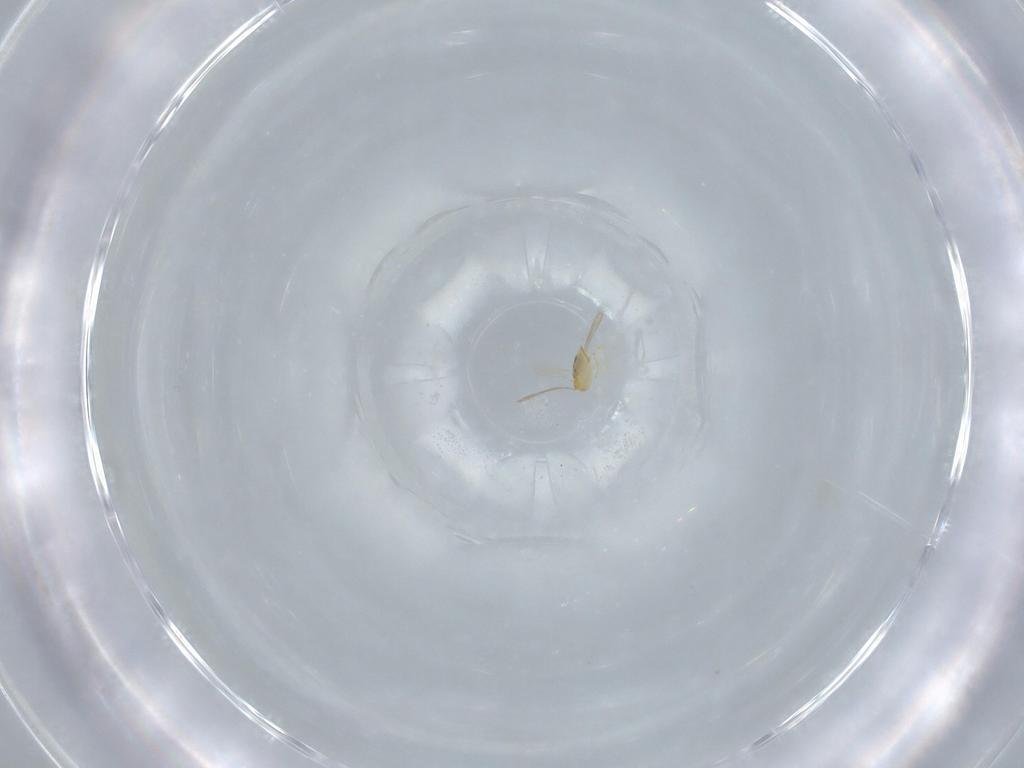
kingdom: Animalia
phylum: Arthropoda
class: Insecta
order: Hymenoptera
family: Aphelinidae
